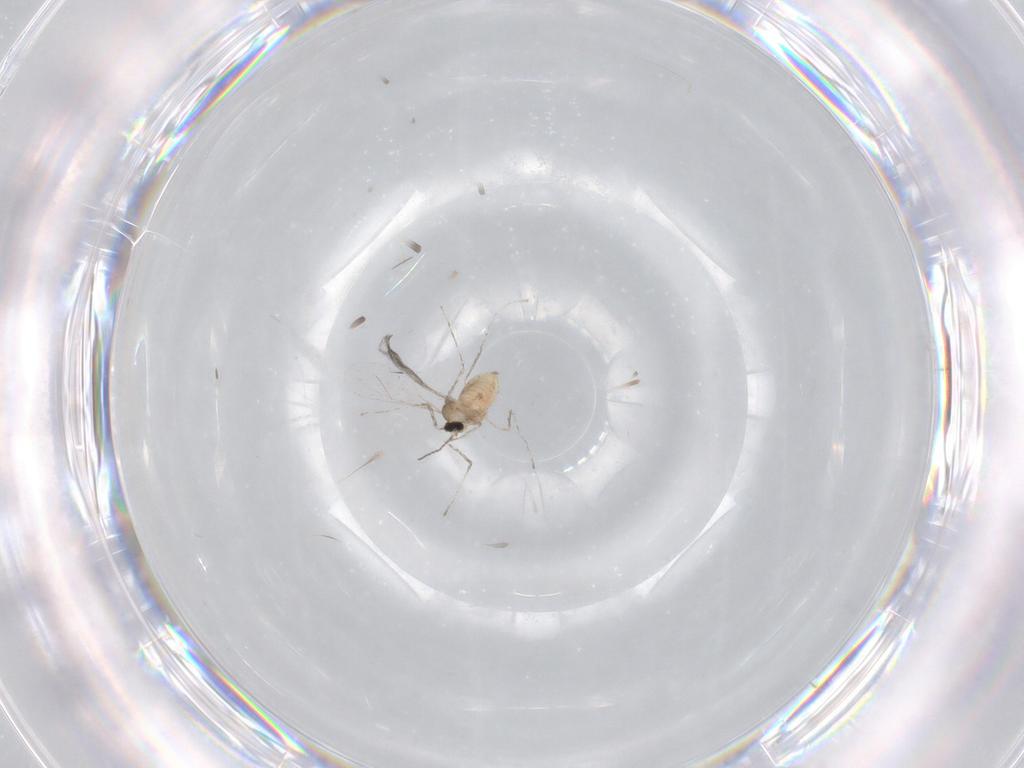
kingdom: Animalia
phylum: Arthropoda
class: Insecta
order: Diptera
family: Cecidomyiidae
